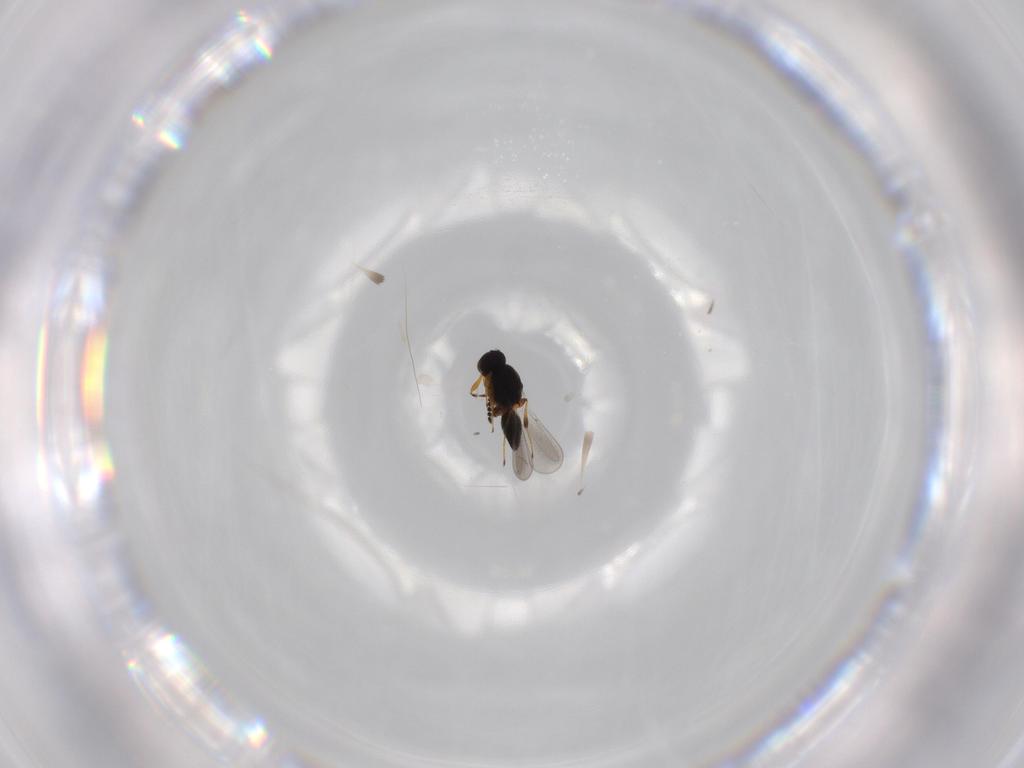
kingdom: Animalia
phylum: Arthropoda
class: Insecta
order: Hymenoptera
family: Platygastridae
